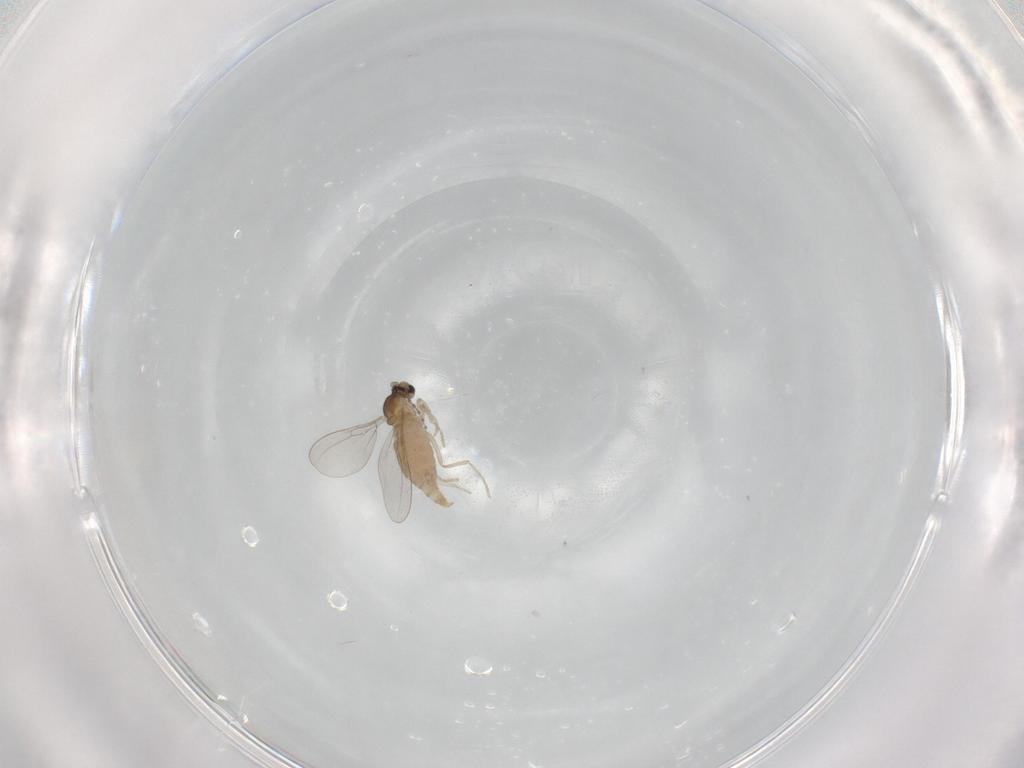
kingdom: Animalia
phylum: Arthropoda
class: Insecta
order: Diptera
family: Cecidomyiidae
